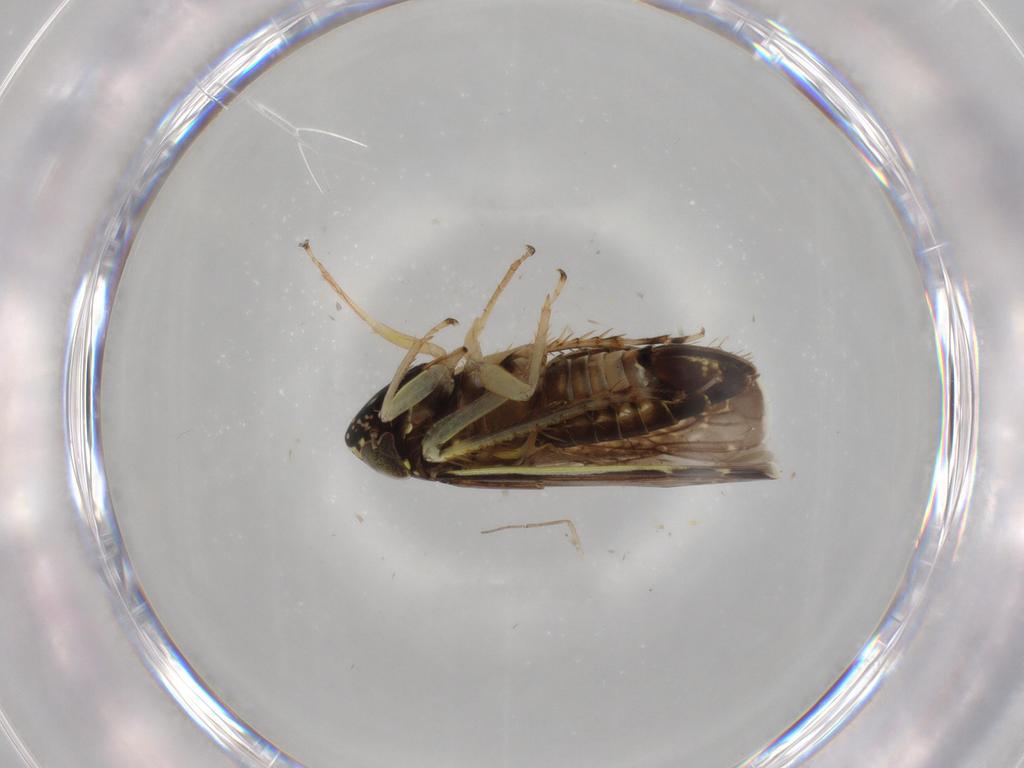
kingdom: Animalia
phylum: Arthropoda
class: Insecta
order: Hemiptera
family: Cicadellidae
